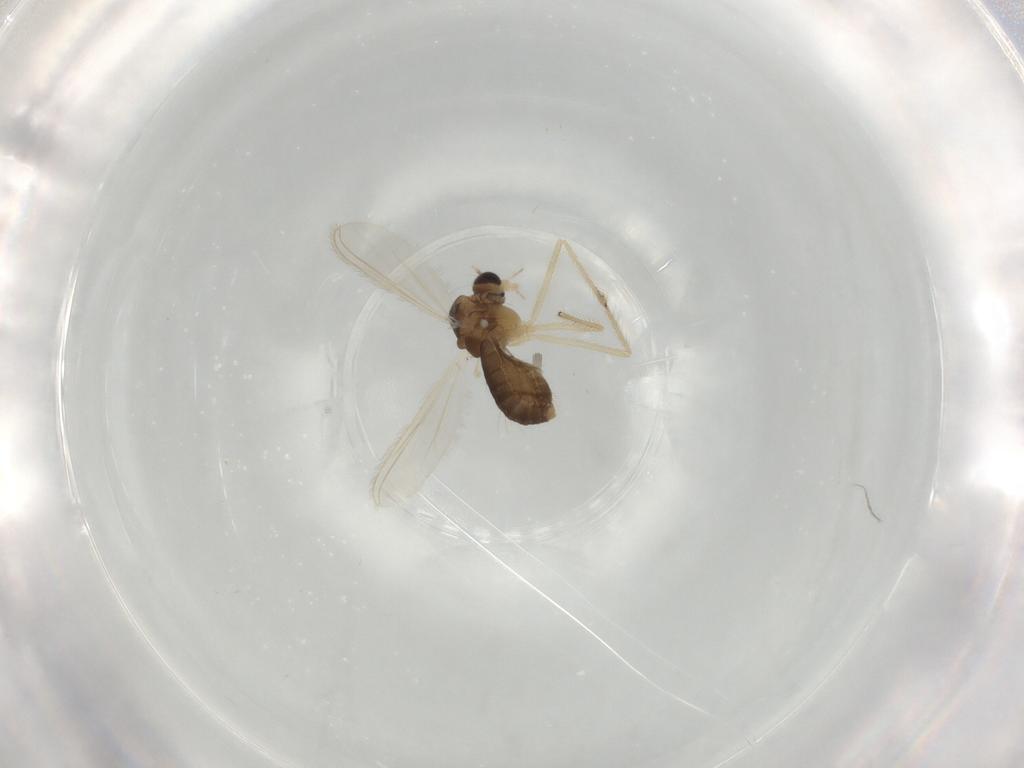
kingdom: Animalia
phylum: Arthropoda
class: Insecta
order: Diptera
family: Chironomidae
